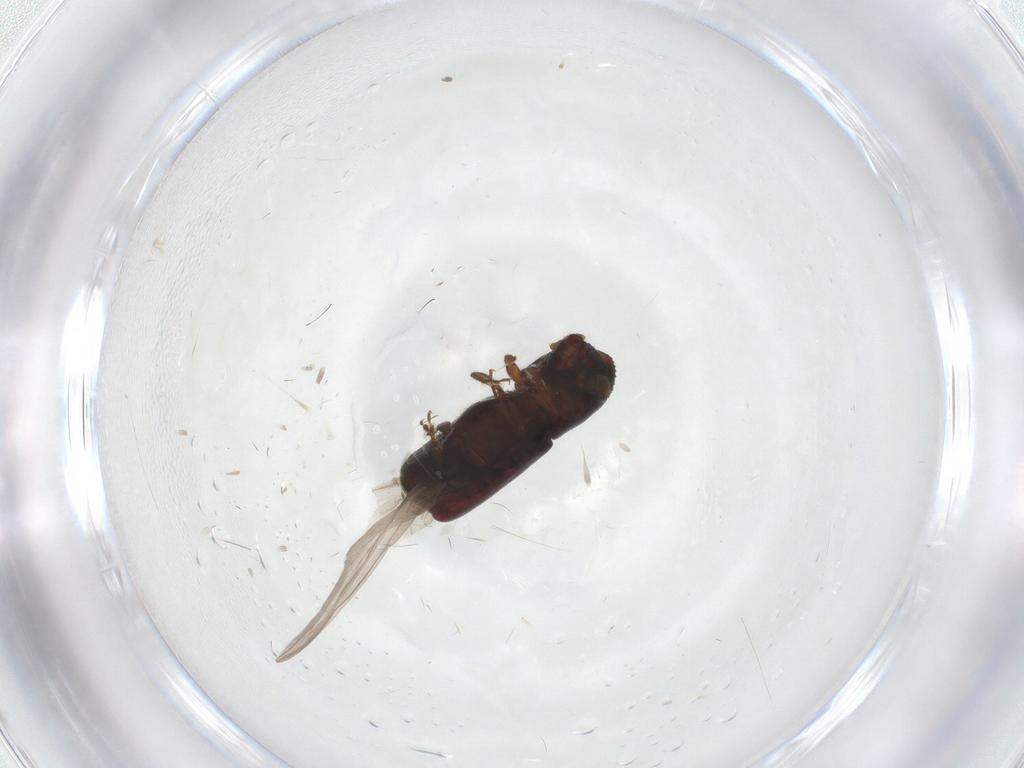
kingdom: Animalia
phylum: Arthropoda
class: Insecta
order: Coleoptera
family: Curculionidae
